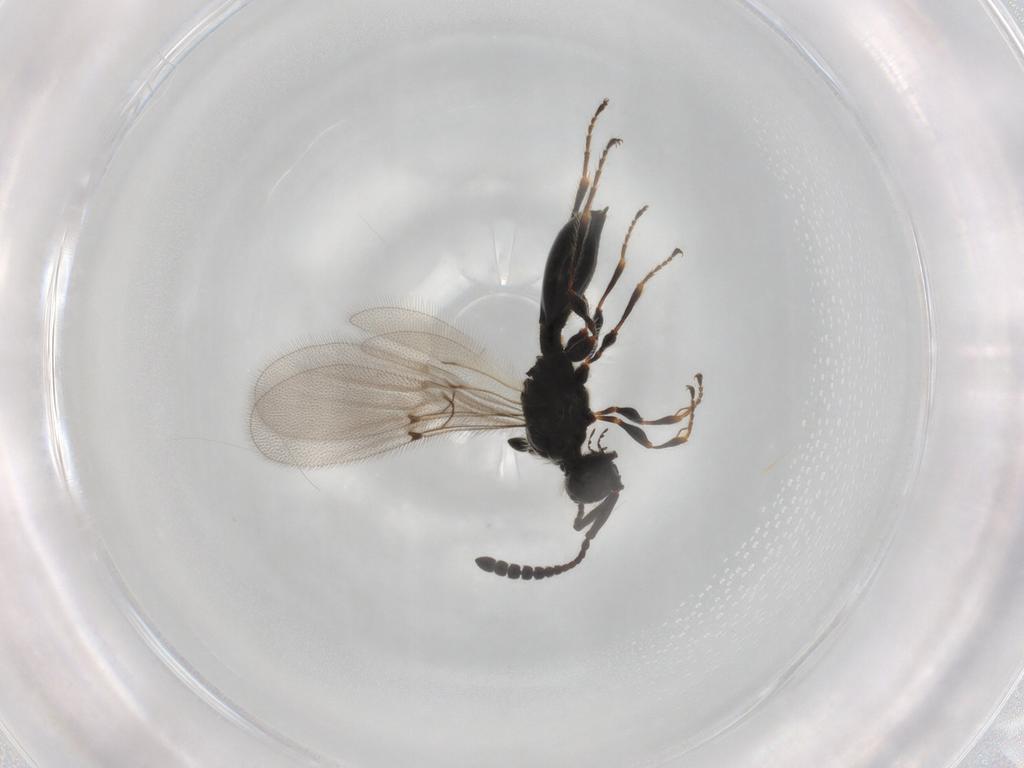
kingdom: Animalia
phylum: Arthropoda
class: Insecta
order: Hymenoptera
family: Diapriidae
